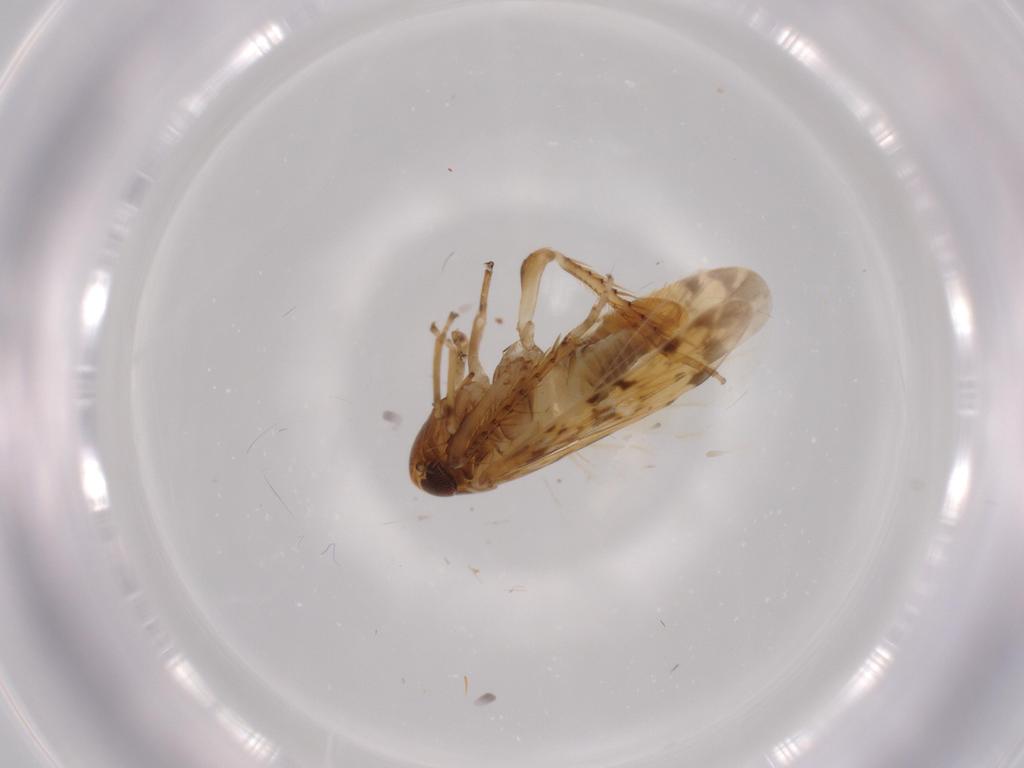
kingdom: Animalia
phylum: Arthropoda
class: Insecta
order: Hemiptera
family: Cicadellidae
